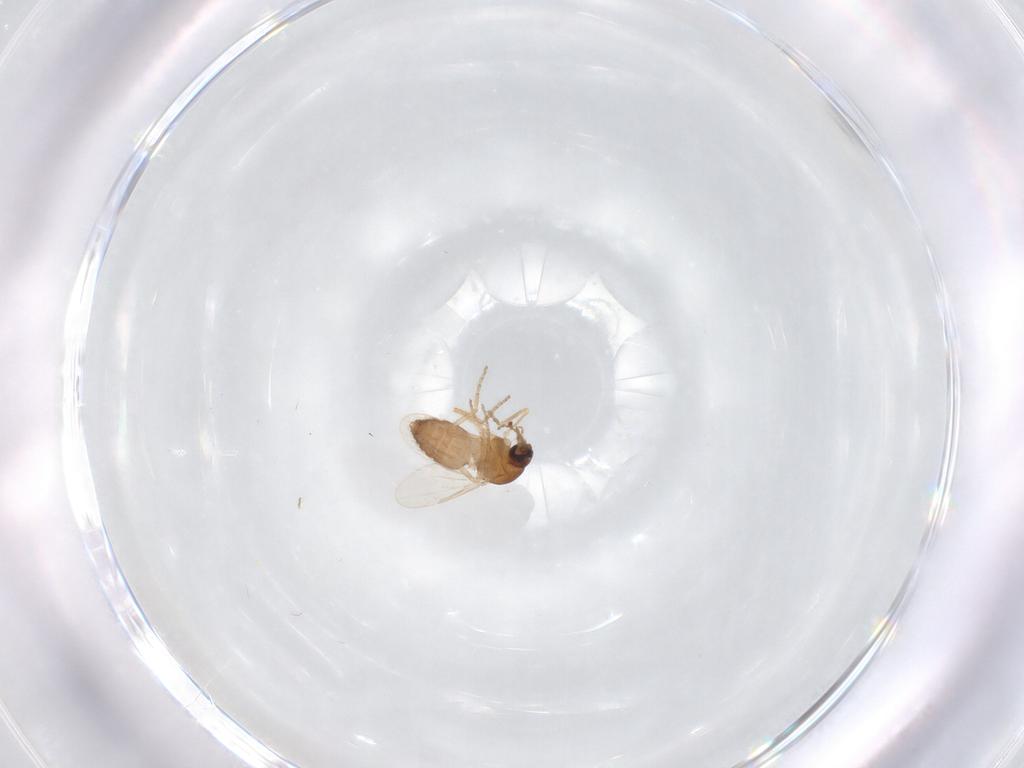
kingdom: Animalia
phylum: Arthropoda
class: Insecta
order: Diptera
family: Ceratopogonidae
